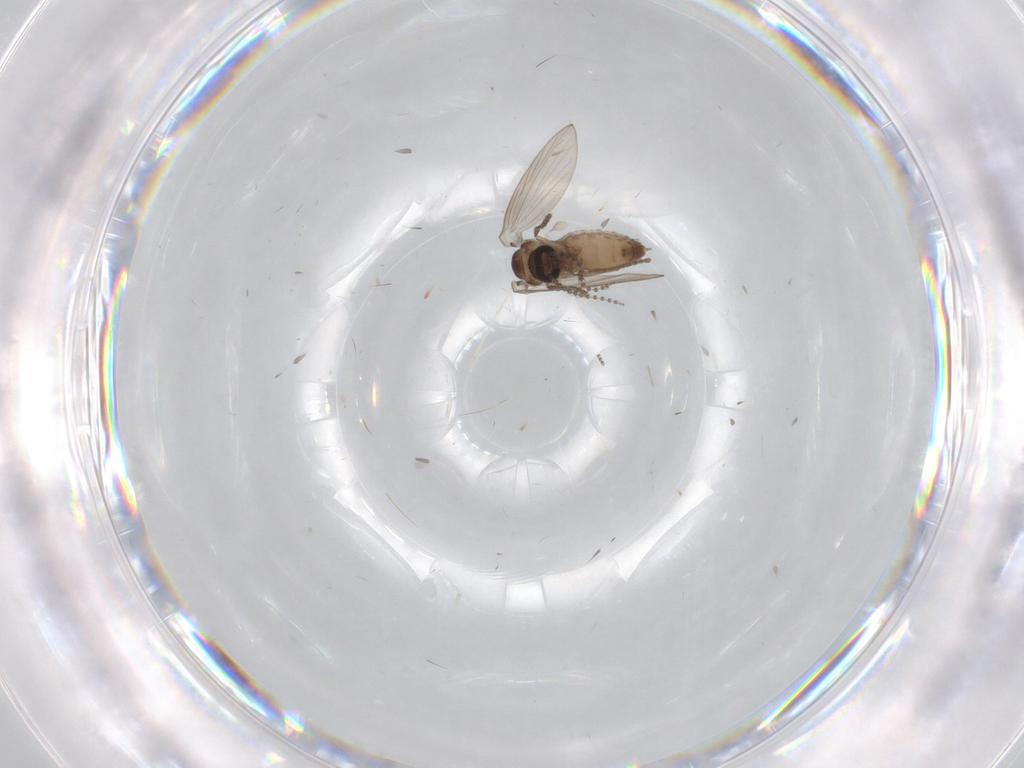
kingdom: Animalia
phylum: Arthropoda
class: Insecta
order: Diptera
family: Psychodidae
